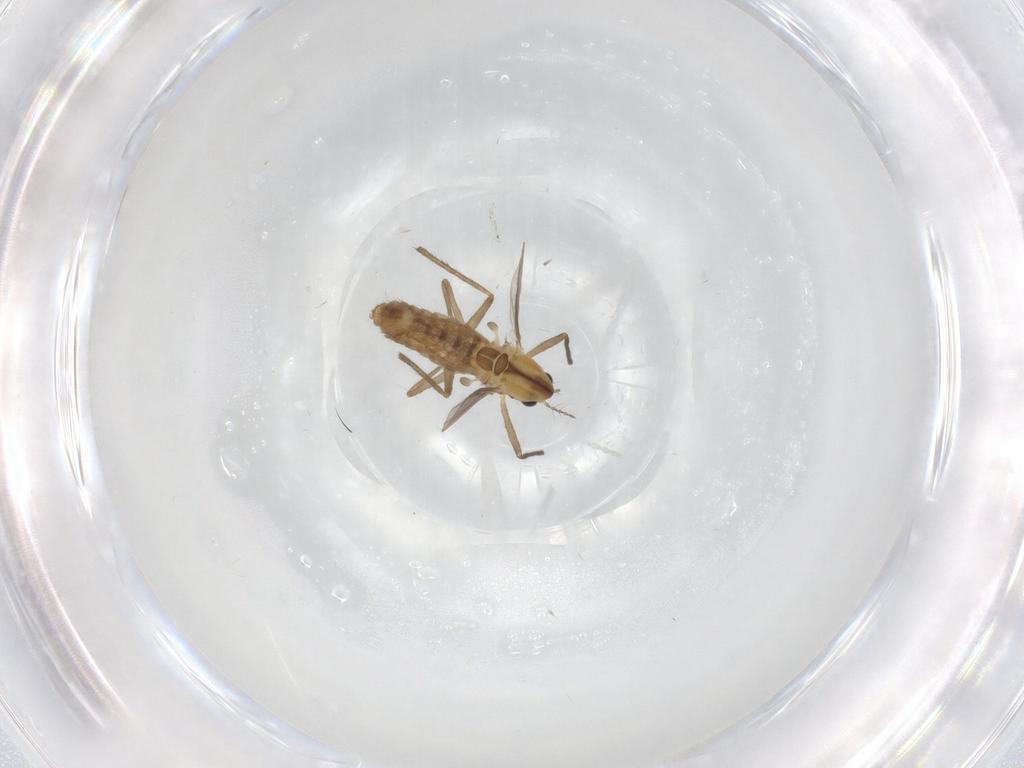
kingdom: Animalia
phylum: Arthropoda
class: Insecta
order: Diptera
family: Chironomidae
